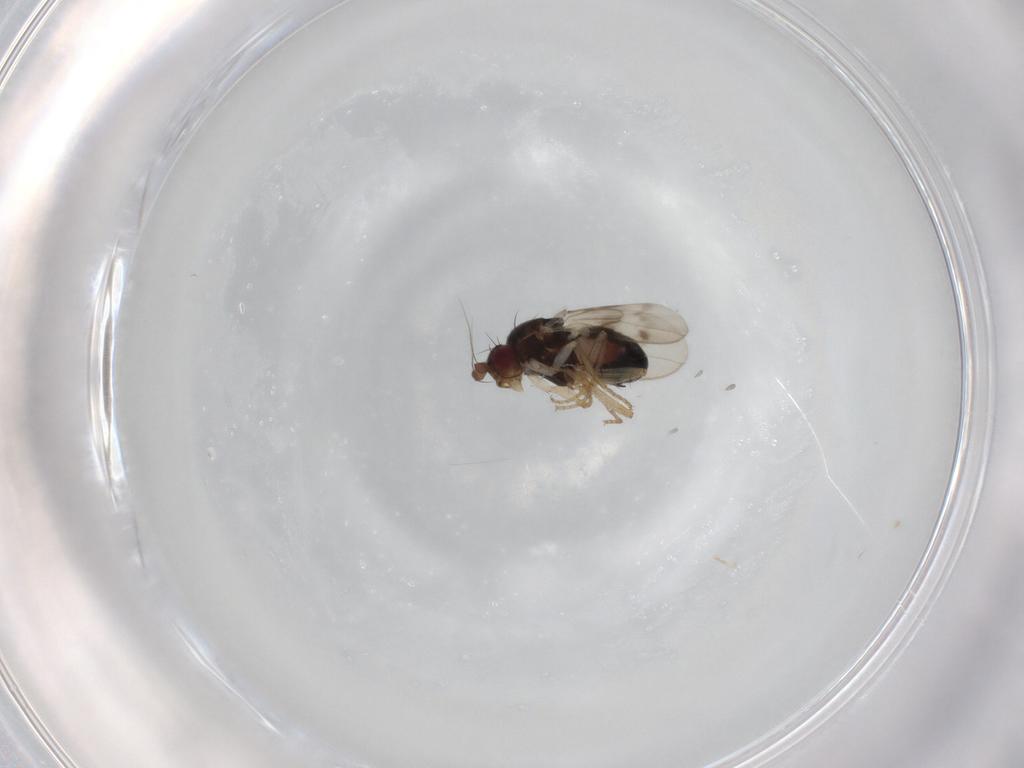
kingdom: Animalia
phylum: Arthropoda
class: Insecta
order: Diptera
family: Sphaeroceridae
